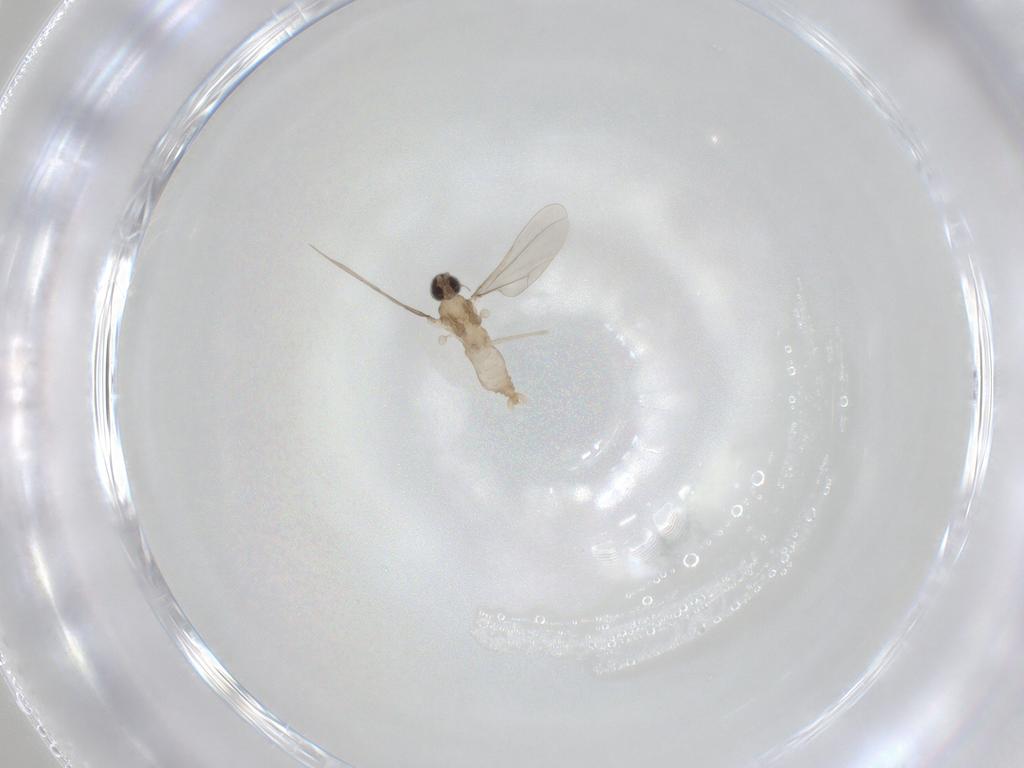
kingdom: Animalia
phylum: Arthropoda
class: Insecta
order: Diptera
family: Cecidomyiidae
